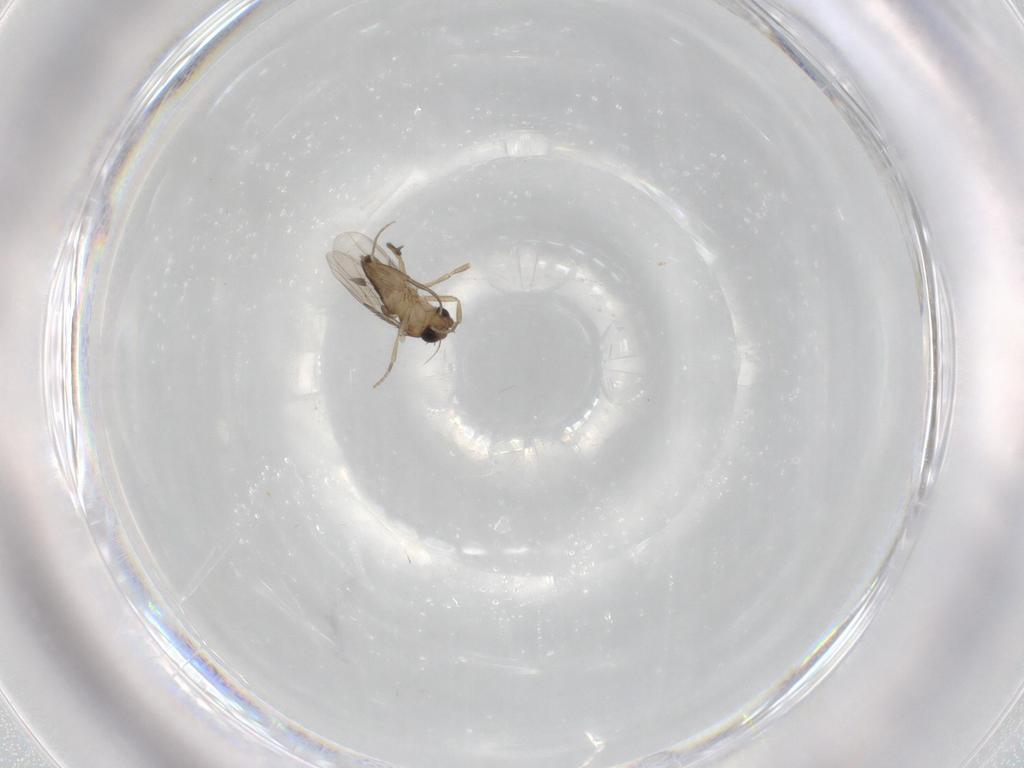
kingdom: Animalia
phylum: Arthropoda
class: Insecta
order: Diptera
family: Phoridae
